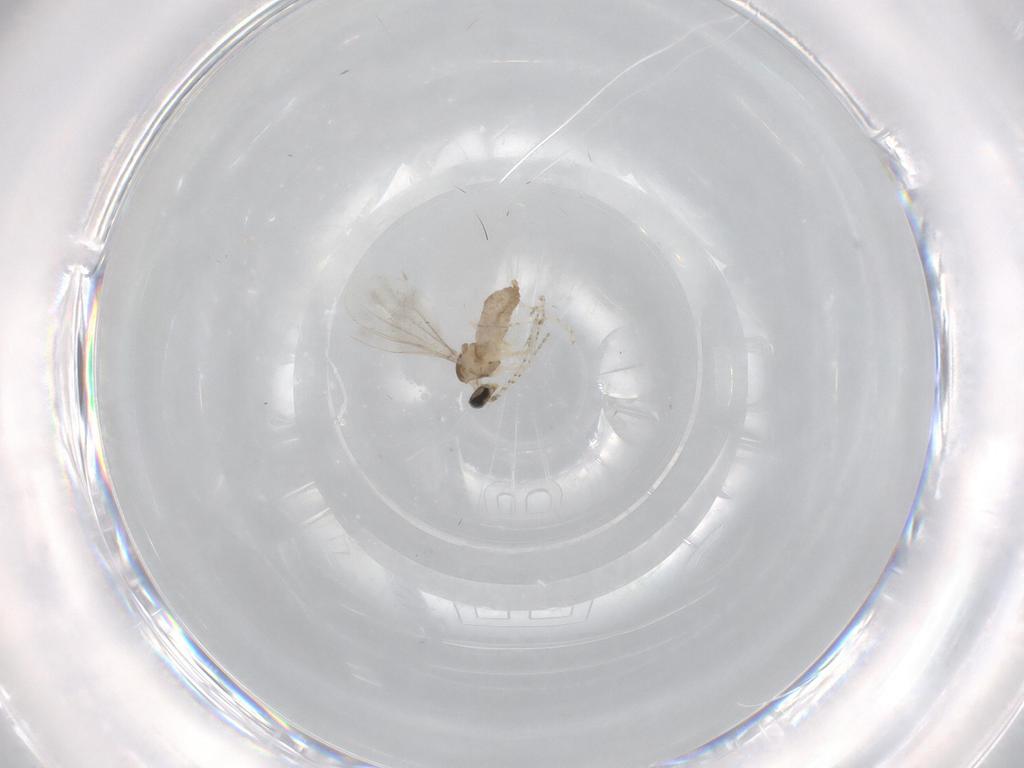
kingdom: Animalia
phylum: Arthropoda
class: Insecta
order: Diptera
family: Cecidomyiidae
